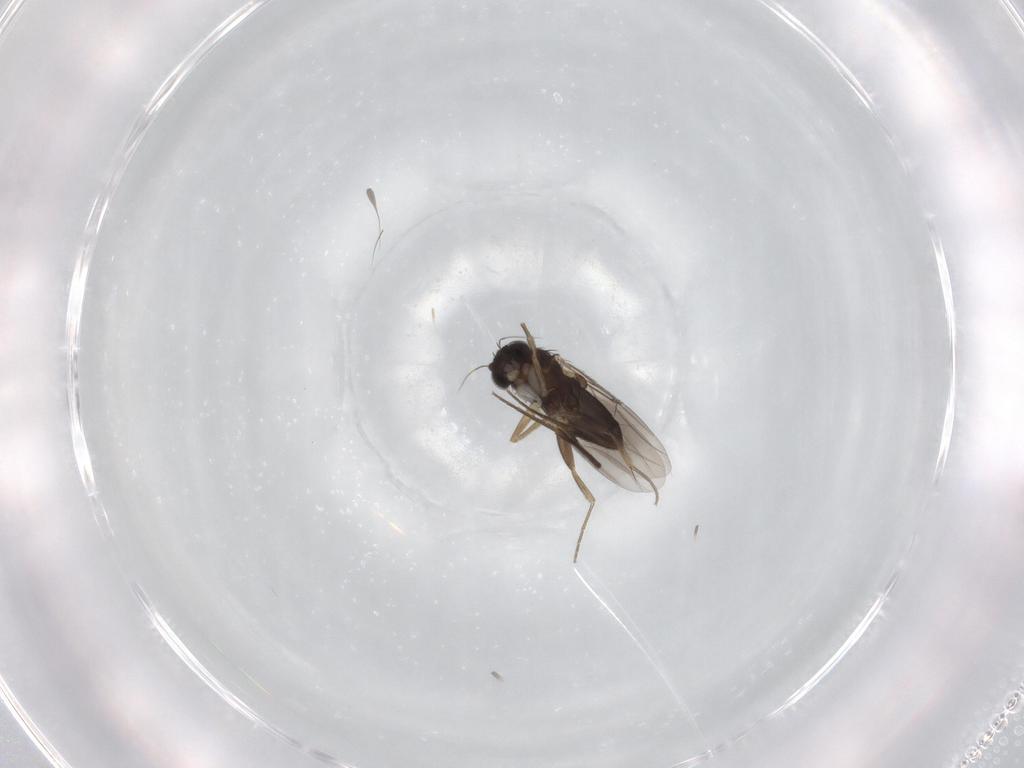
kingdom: Animalia
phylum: Arthropoda
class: Insecta
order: Diptera
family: Phoridae
